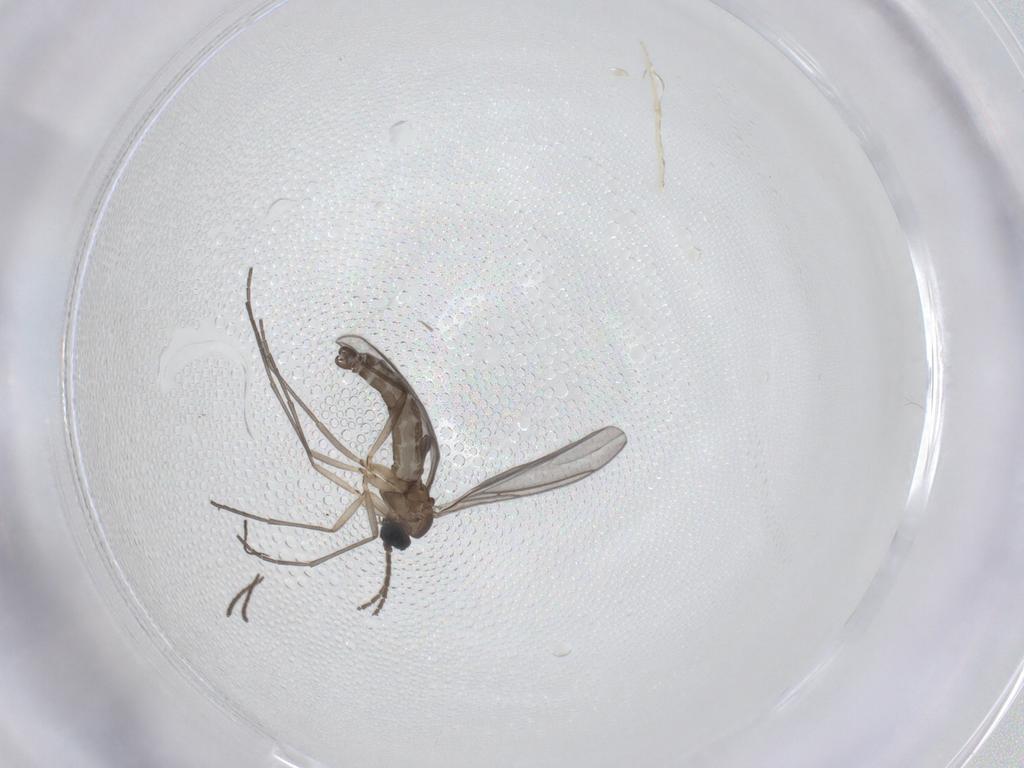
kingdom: Animalia
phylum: Arthropoda
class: Insecta
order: Diptera
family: Sciaridae
